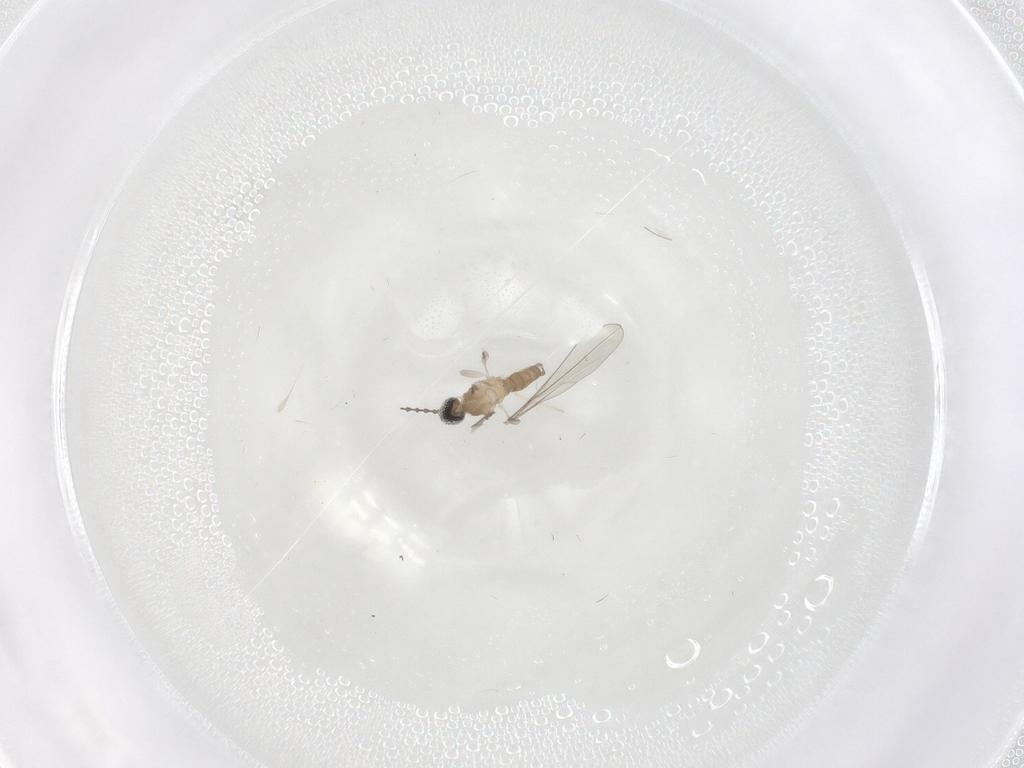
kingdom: Animalia
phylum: Arthropoda
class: Insecta
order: Diptera
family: Cecidomyiidae
